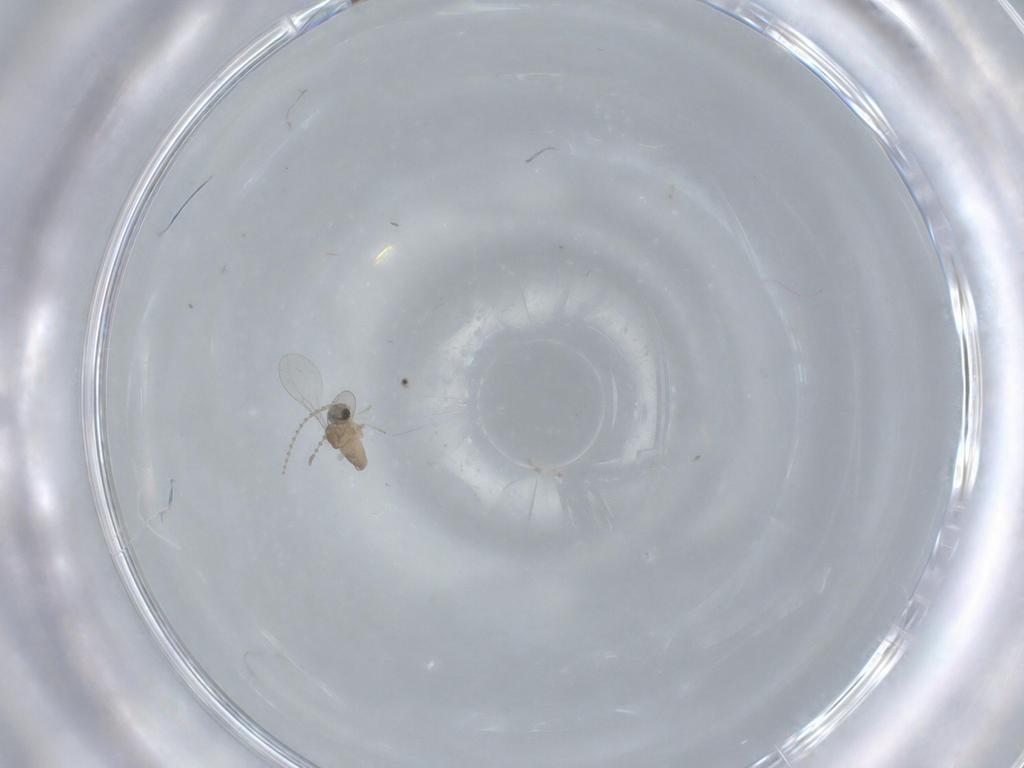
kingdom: Animalia
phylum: Arthropoda
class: Insecta
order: Diptera
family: Cecidomyiidae
